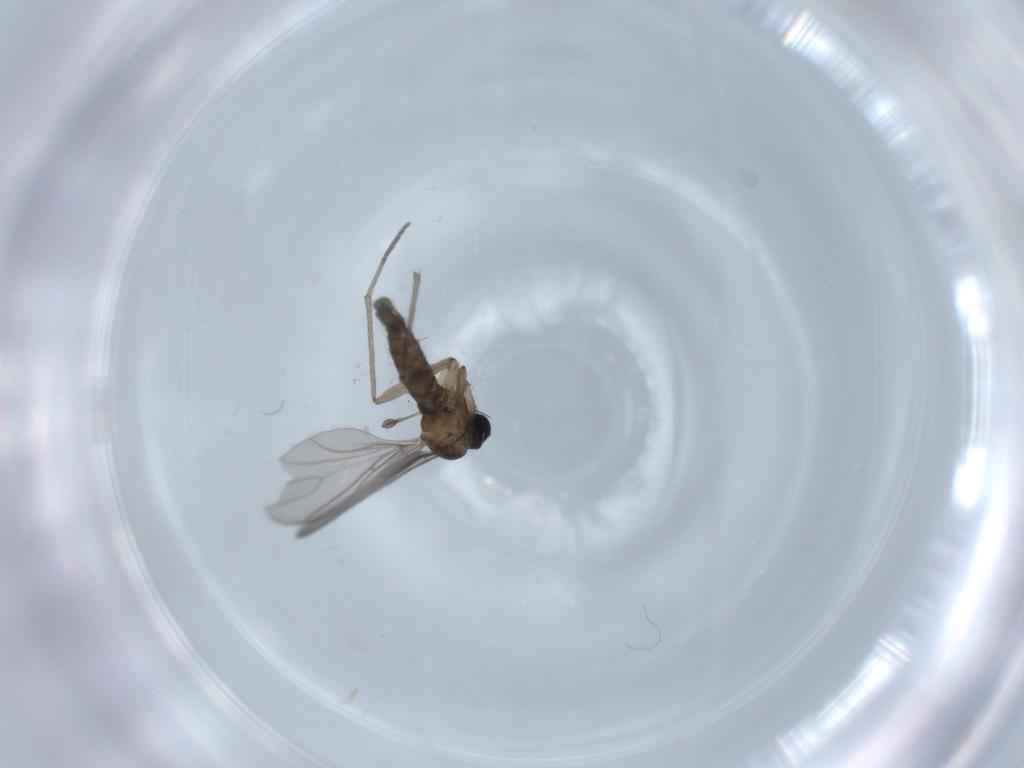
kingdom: Animalia
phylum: Arthropoda
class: Insecta
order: Diptera
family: Sciaridae
